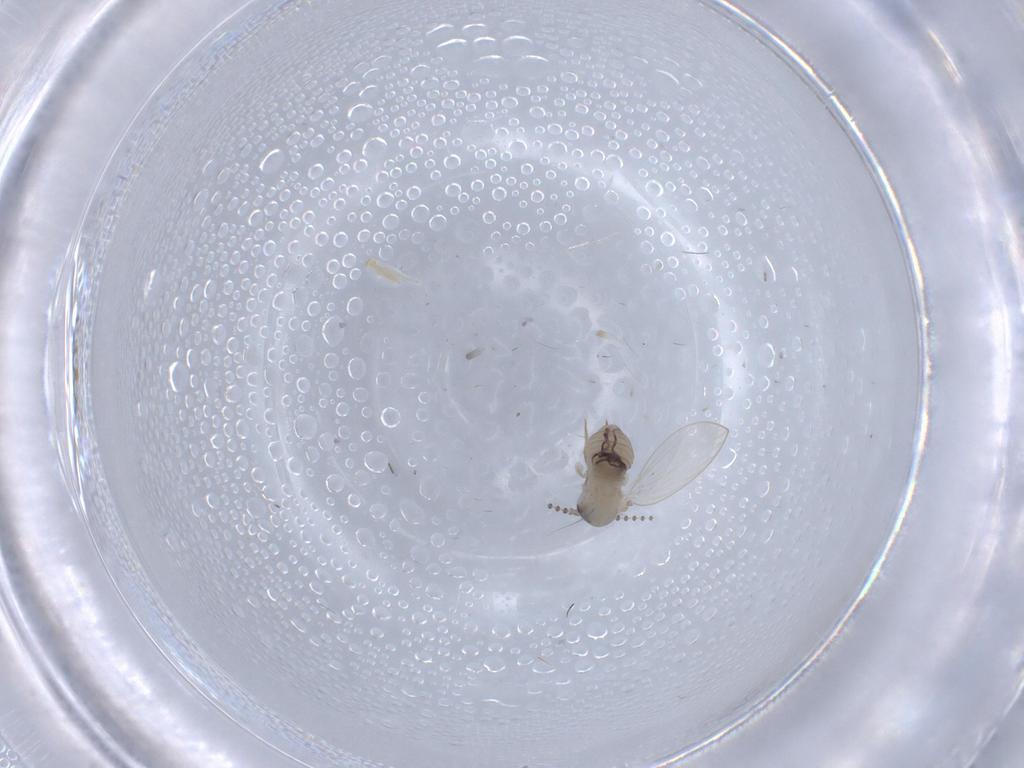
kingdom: Animalia
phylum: Arthropoda
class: Insecta
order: Diptera
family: Psychodidae
